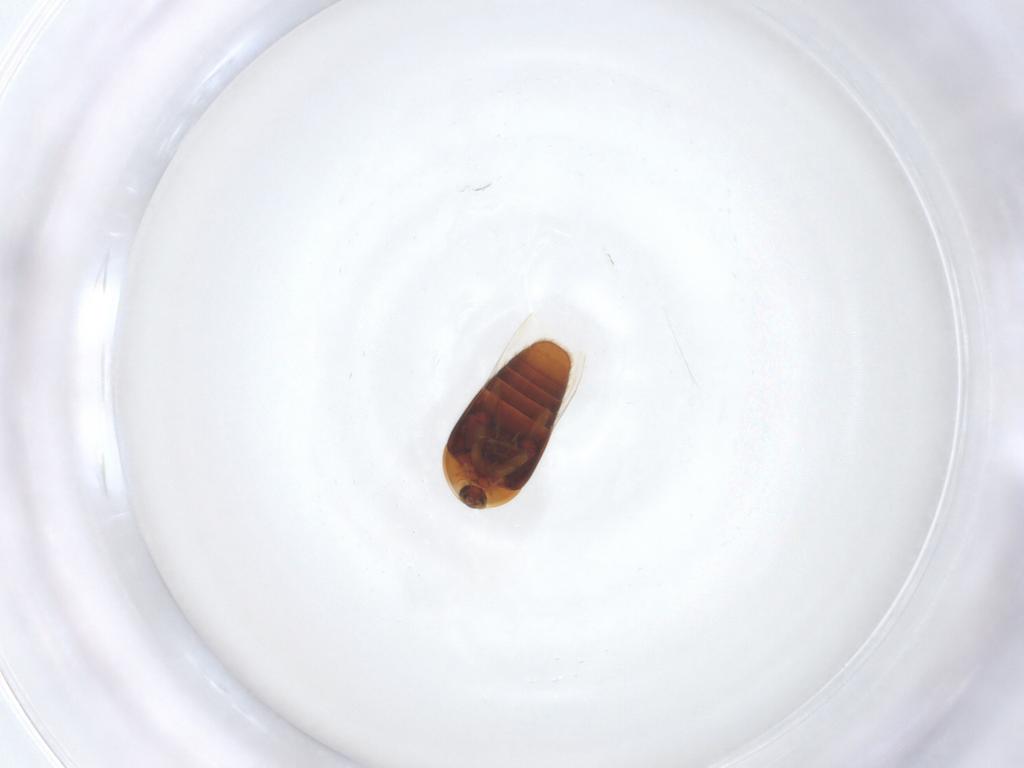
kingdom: Animalia
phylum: Arthropoda
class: Insecta
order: Coleoptera
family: Corylophidae
